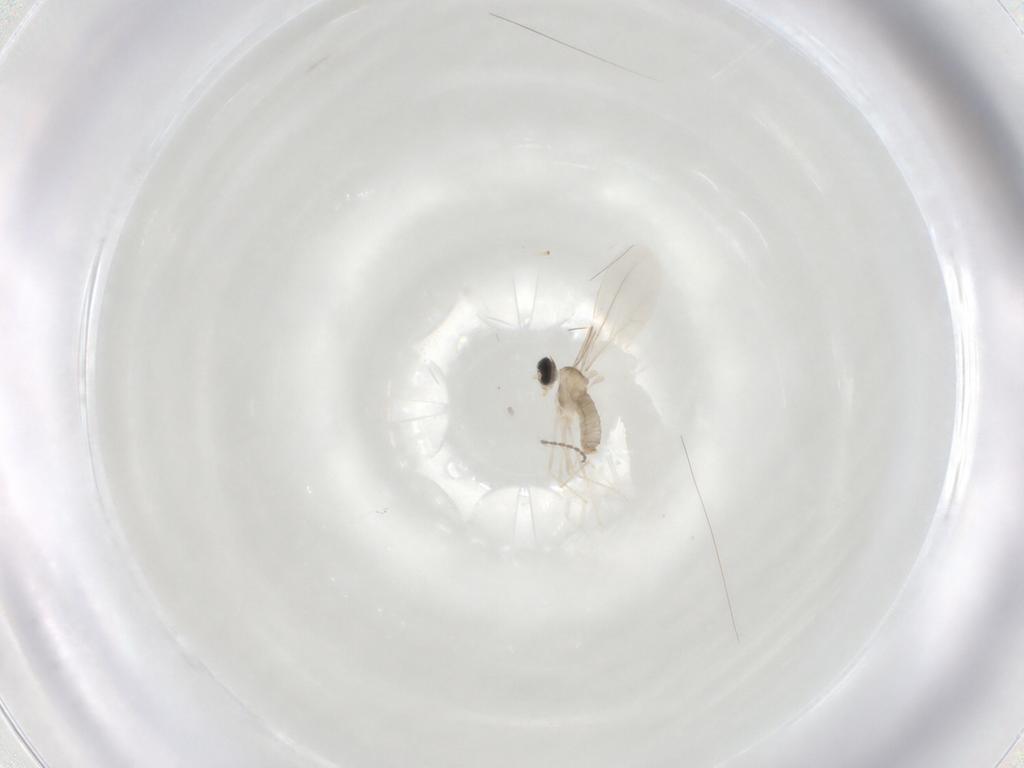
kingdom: Animalia
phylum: Arthropoda
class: Insecta
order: Diptera
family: Cecidomyiidae
